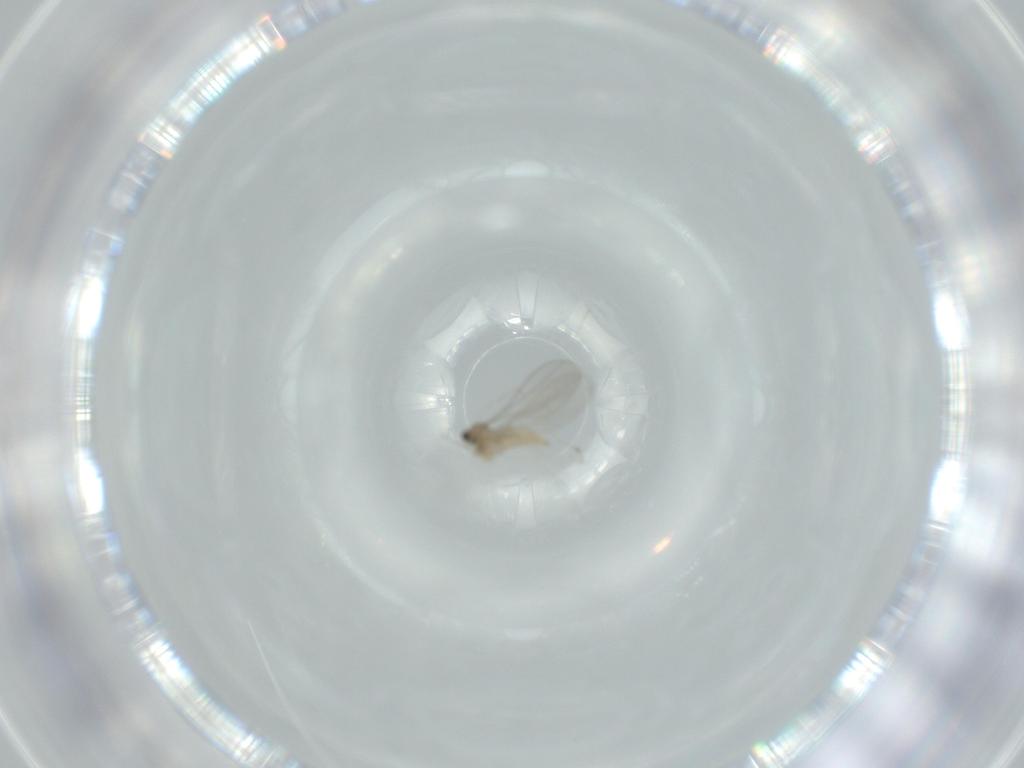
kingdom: Animalia
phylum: Arthropoda
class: Insecta
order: Diptera
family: Cecidomyiidae
